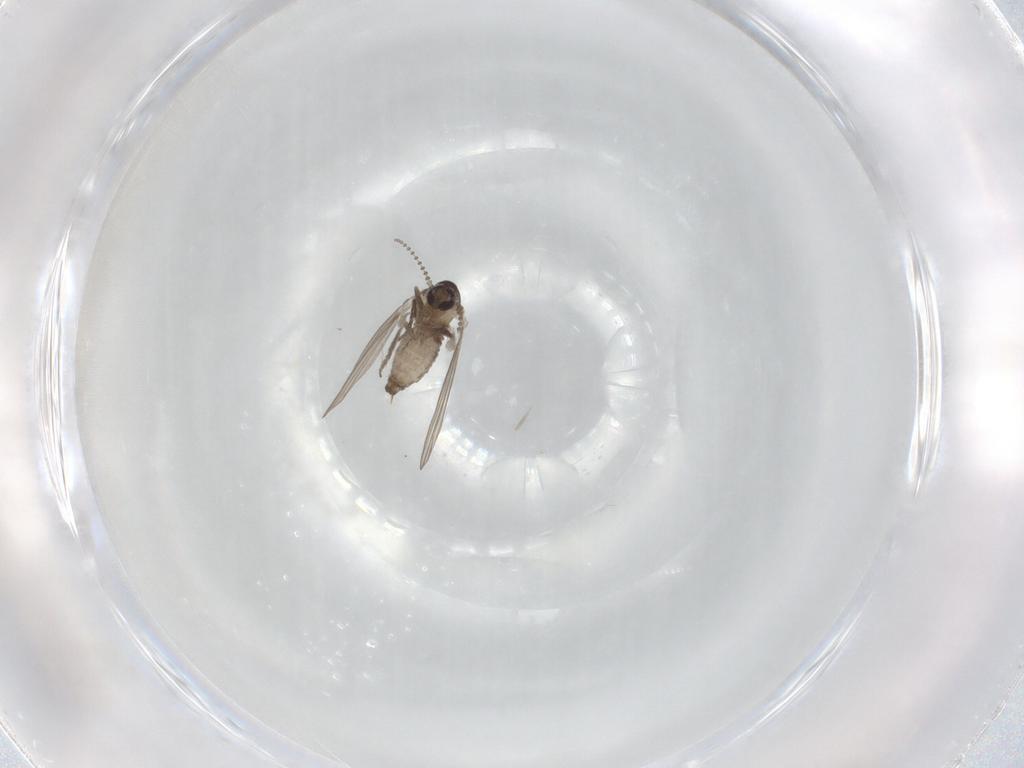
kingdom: Animalia
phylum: Arthropoda
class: Insecta
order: Diptera
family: Psychodidae
